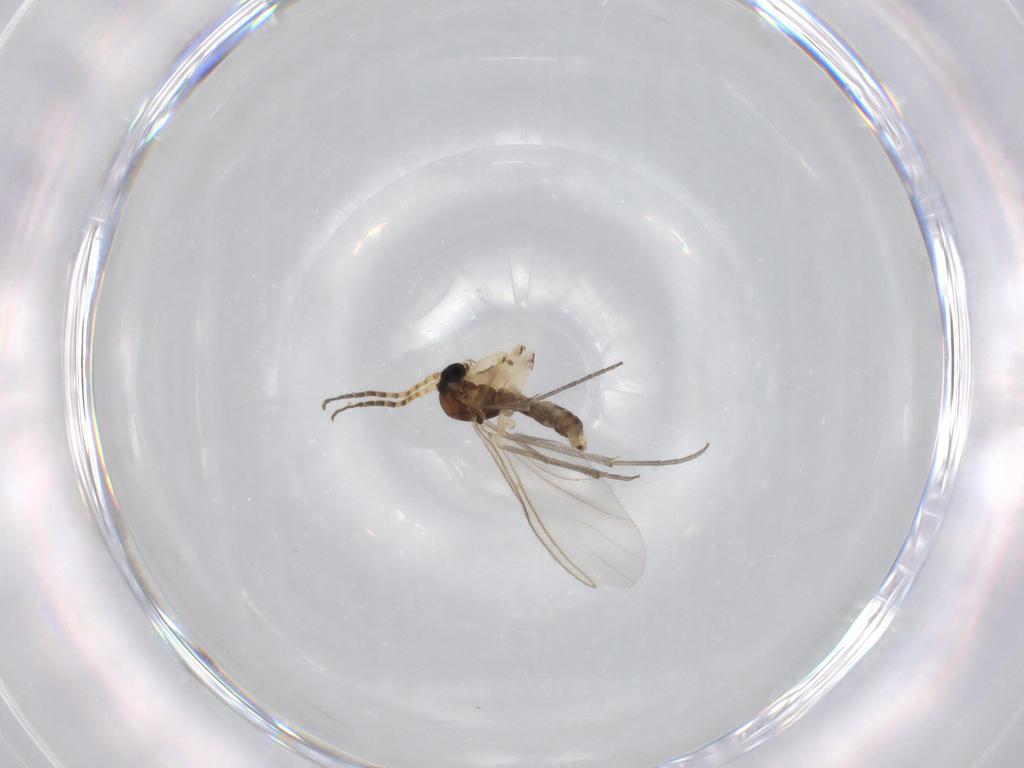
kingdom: Animalia
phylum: Arthropoda
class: Insecta
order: Diptera
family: Sciaridae
